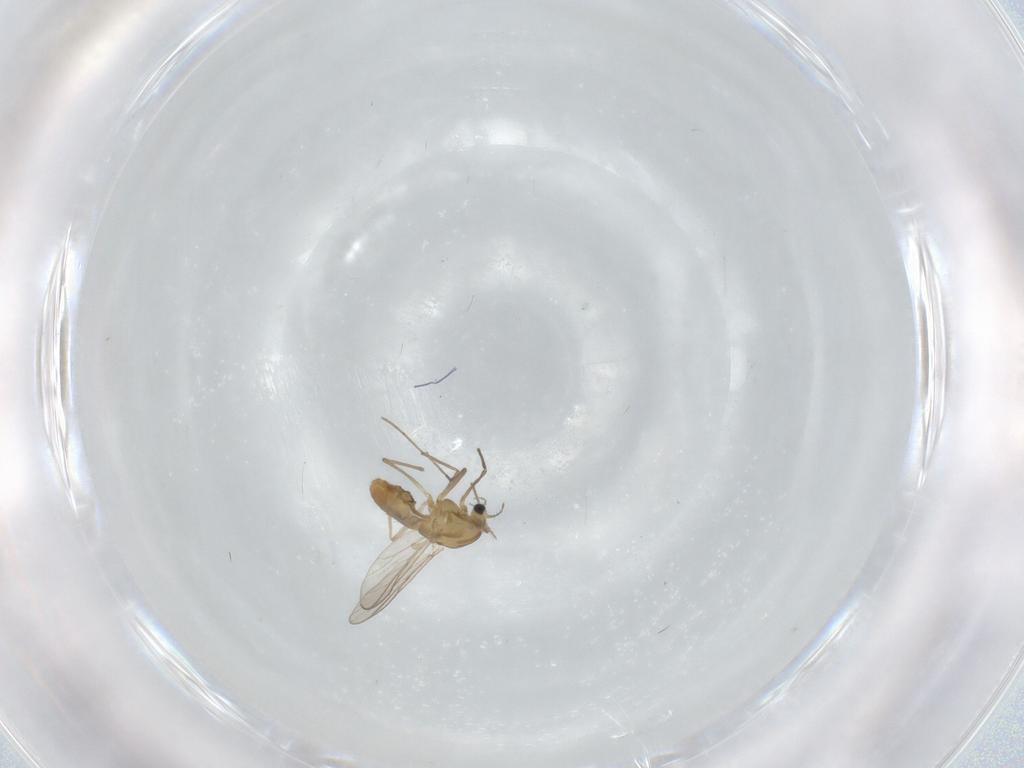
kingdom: Animalia
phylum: Arthropoda
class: Insecta
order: Diptera
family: Chironomidae
